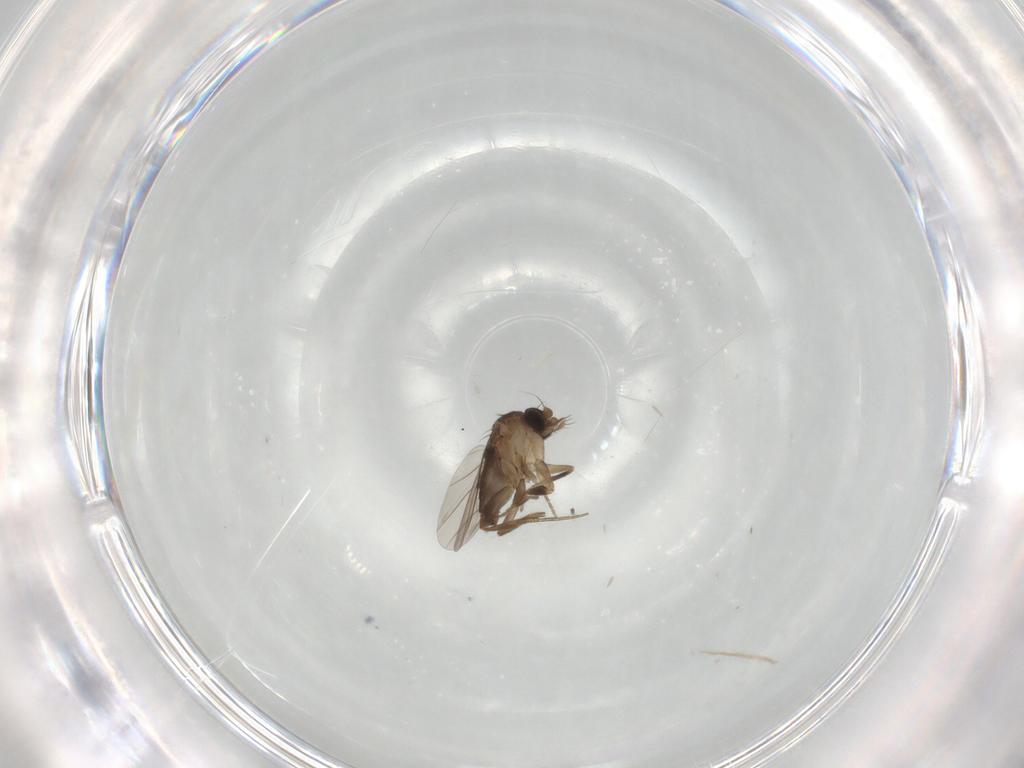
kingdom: Animalia
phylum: Arthropoda
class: Insecta
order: Diptera
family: Phoridae
